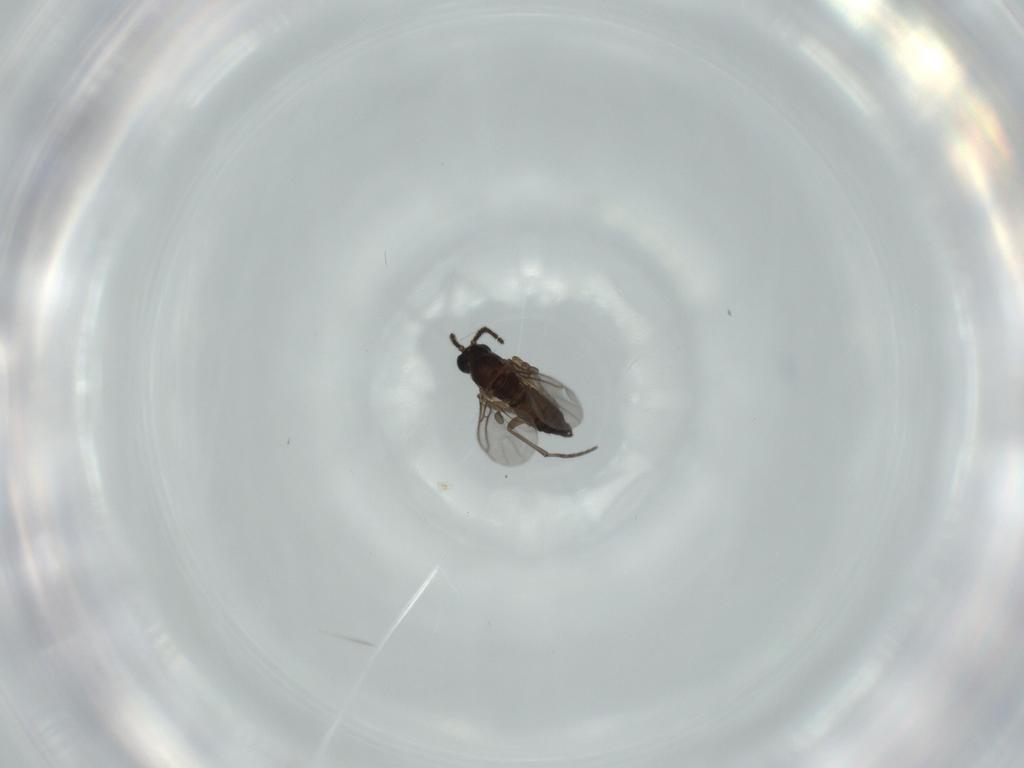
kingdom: Animalia
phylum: Arthropoda
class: Insecta
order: Diptera
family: Sciaridae
